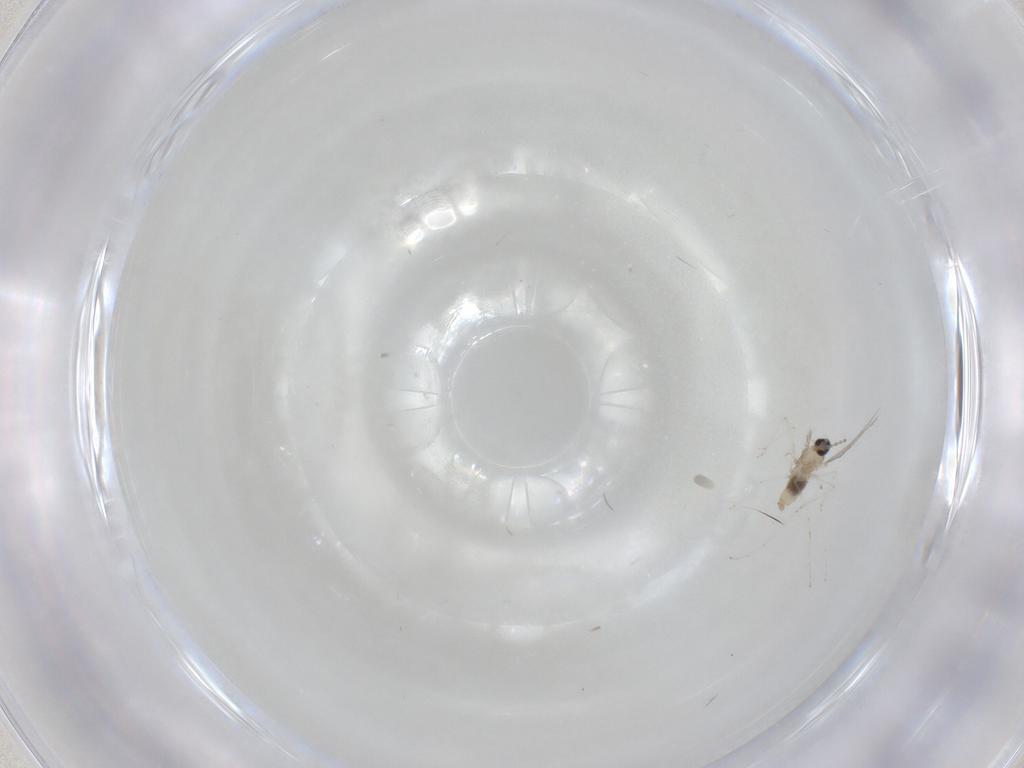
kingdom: Animalia
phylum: Arthropoda
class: Insecta
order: Diptera
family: Cecidomyiidae
